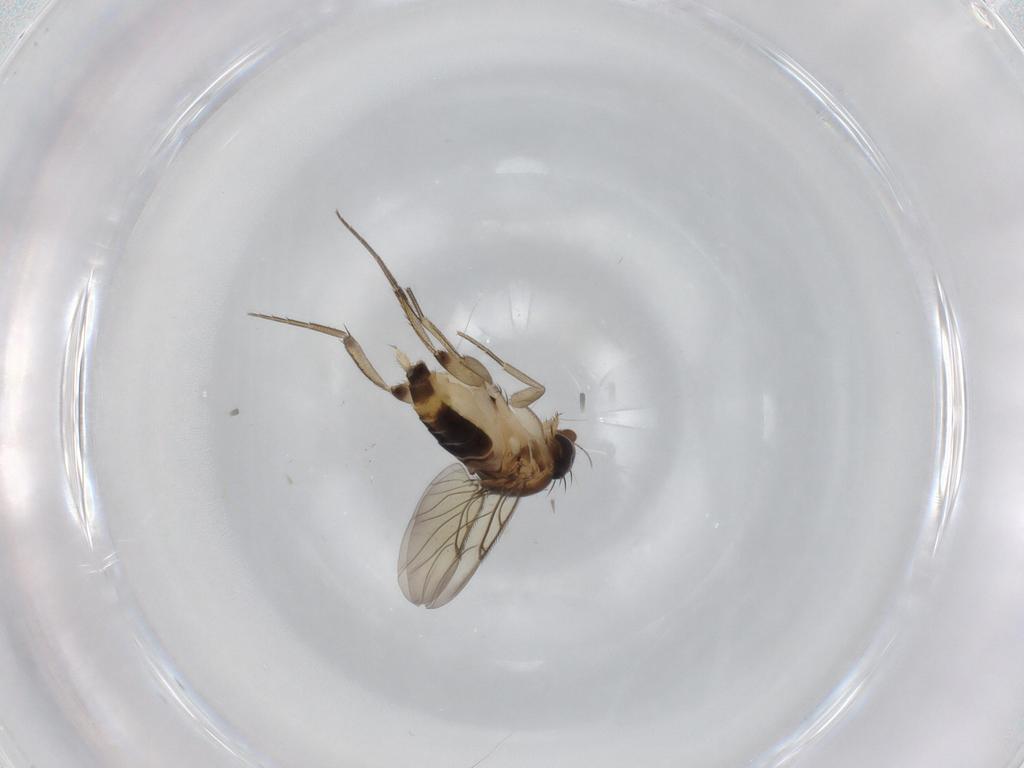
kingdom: Animalia
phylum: Arthropoda
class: Insecta
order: Diptera
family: Phoridae
